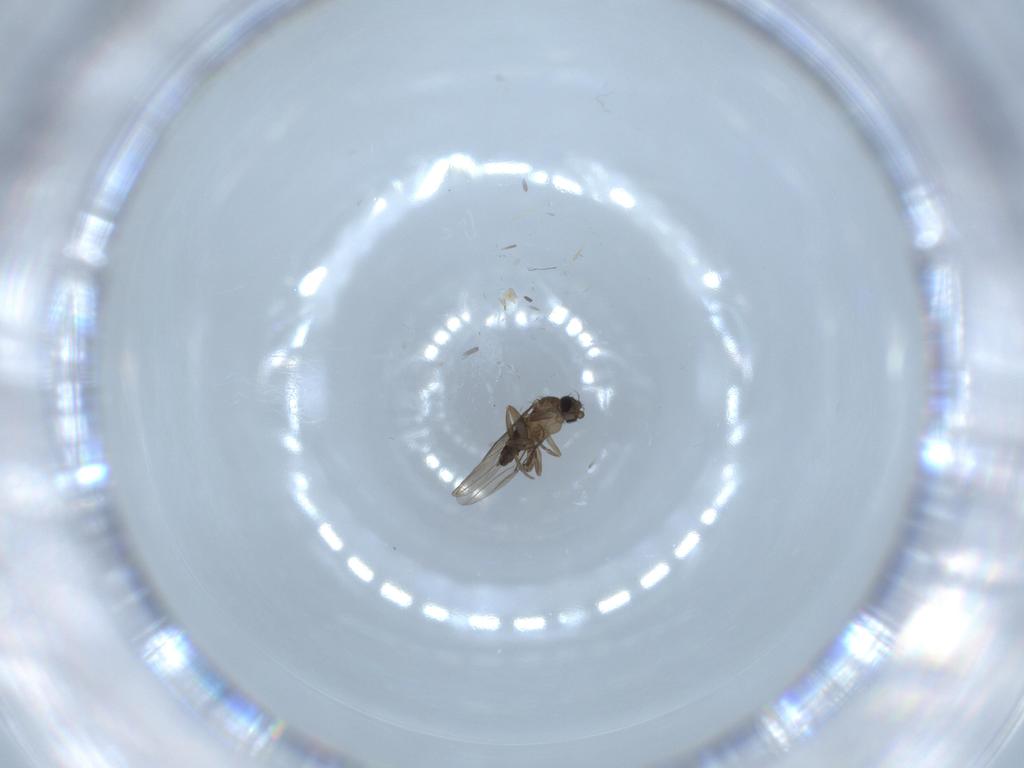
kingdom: Animalia
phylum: Arthropoda
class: Insecta
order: Diptera
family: Phoridae
